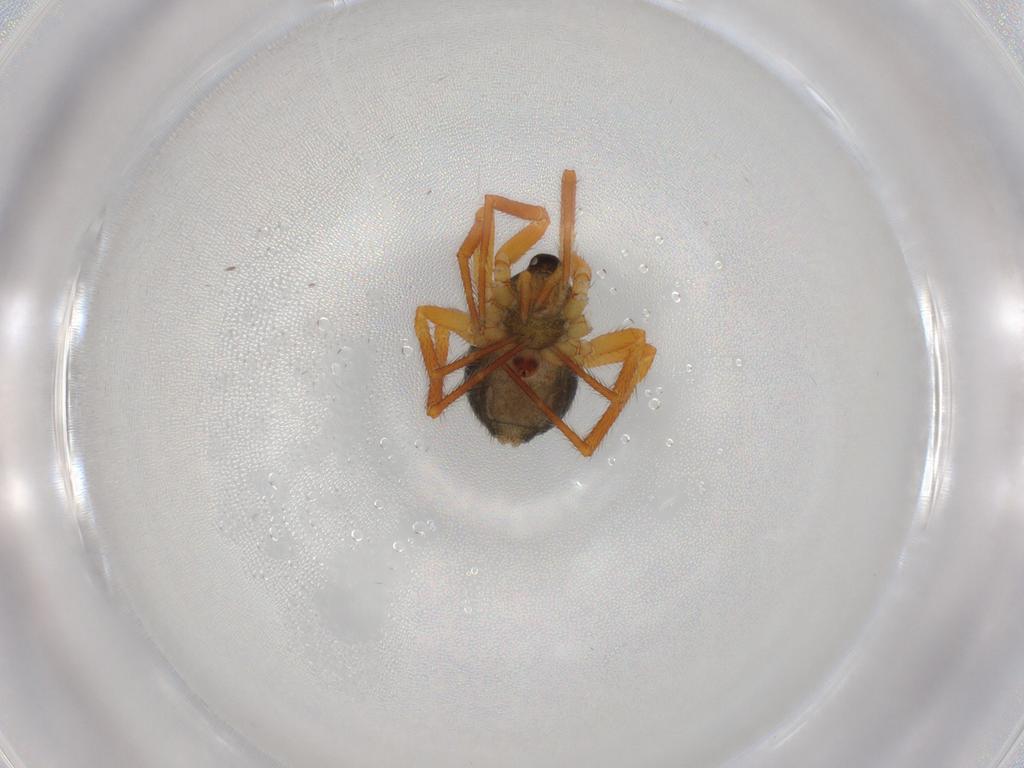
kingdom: Animalia
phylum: Arthropoda
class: Arachnida
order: Araneae
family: Theridiidae
